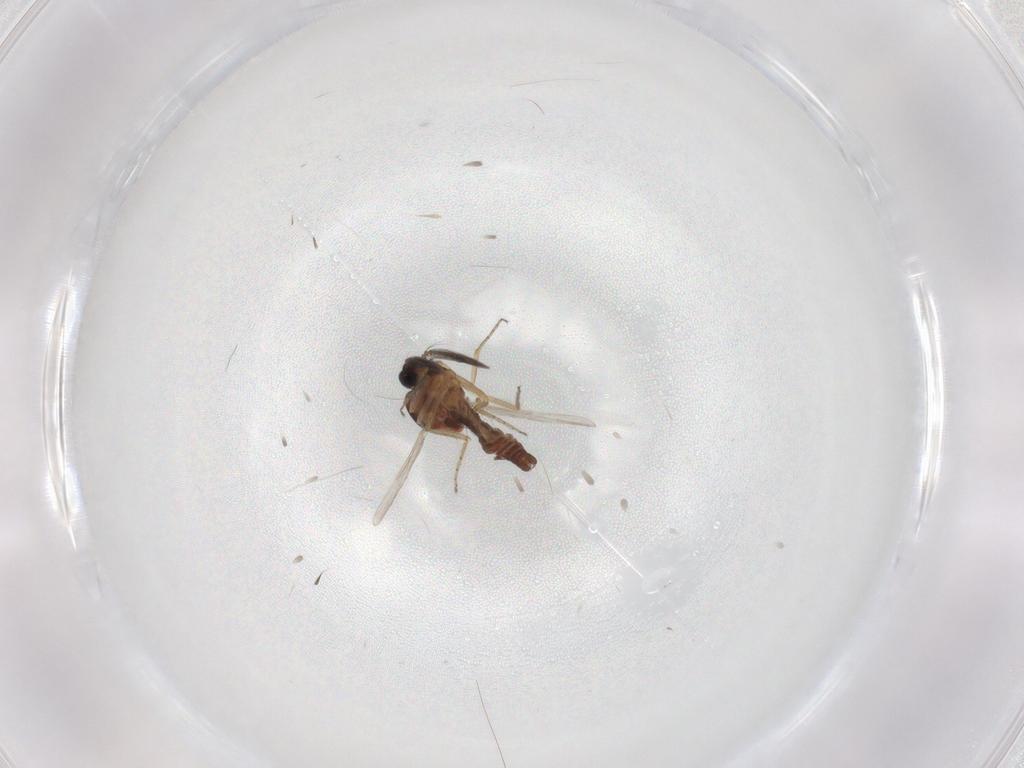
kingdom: Animalia
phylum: Arthropoda
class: Insecta
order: Diptera
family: Ceratopogonidae
